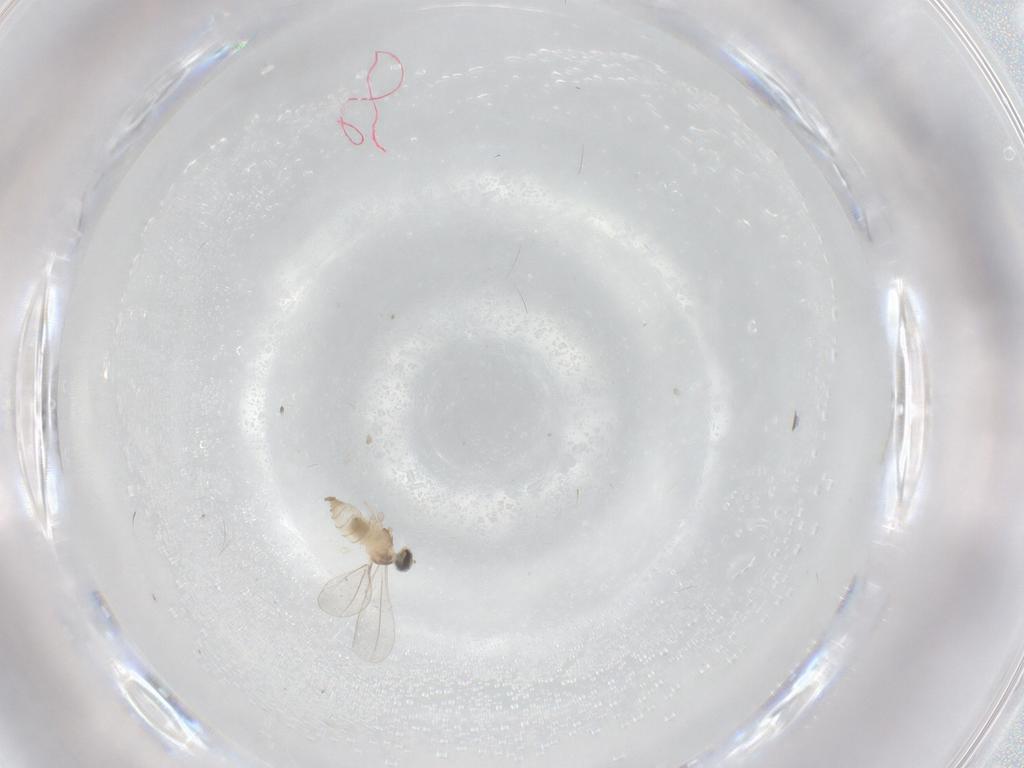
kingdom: Animalia
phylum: Arthropoda
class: Insecta
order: Diptera
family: Cecidomyiidae
